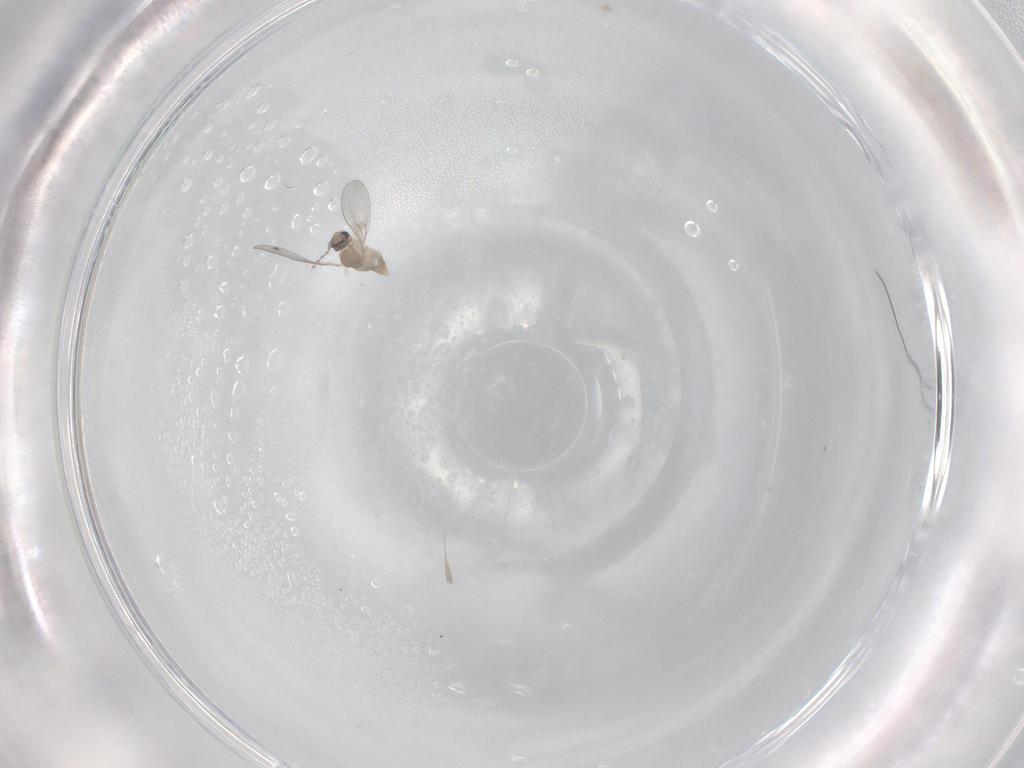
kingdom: Animalia
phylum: Arthropoda
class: Insecta
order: Diptera
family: Cecidomyiidae
